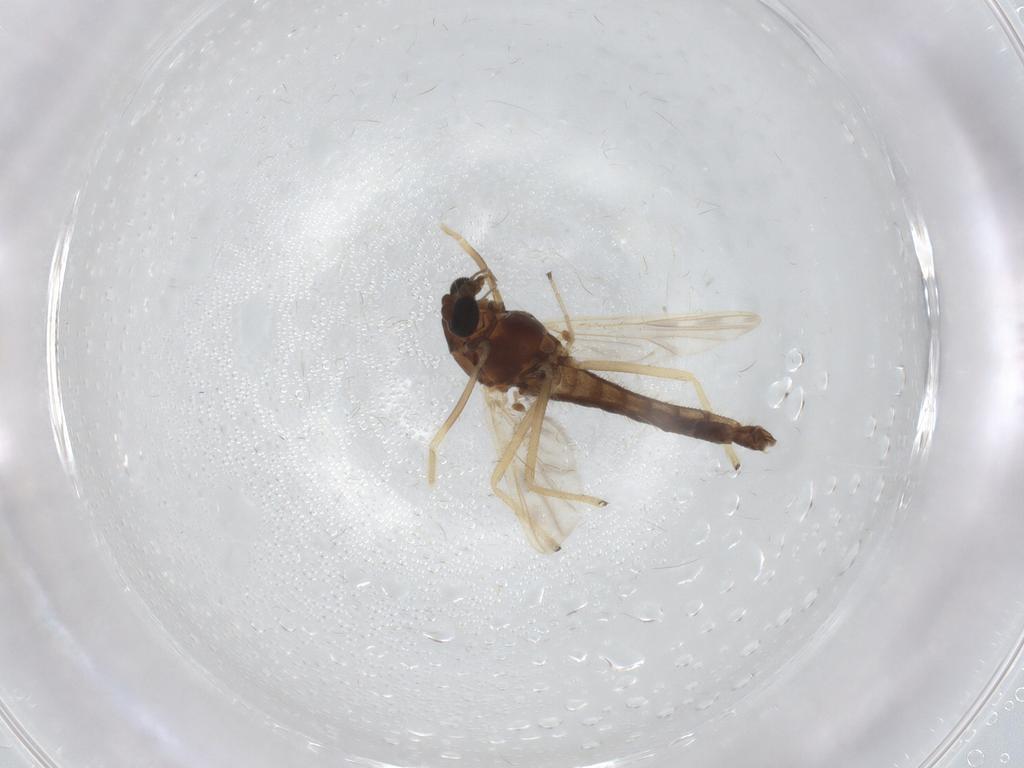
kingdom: Animalia
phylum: Arthropoda
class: Insecta
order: Diptera
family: Chironomidae
